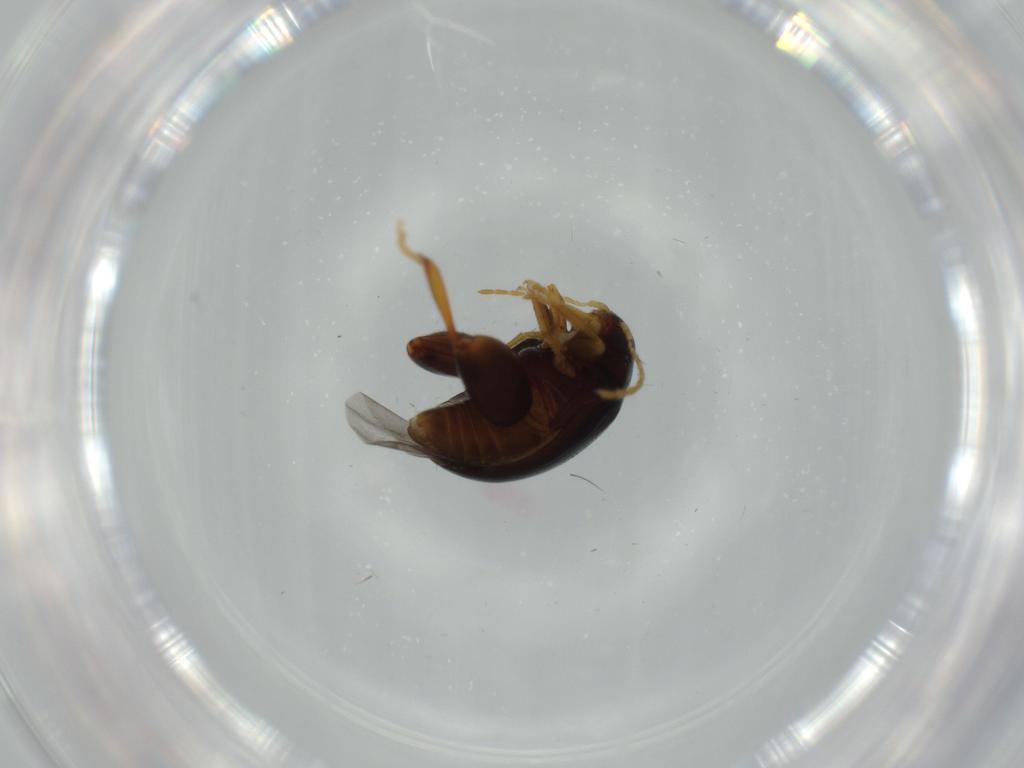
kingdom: Animalia
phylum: Arthropoda
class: Insecta
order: Coleoptera
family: Chrysomelidae
